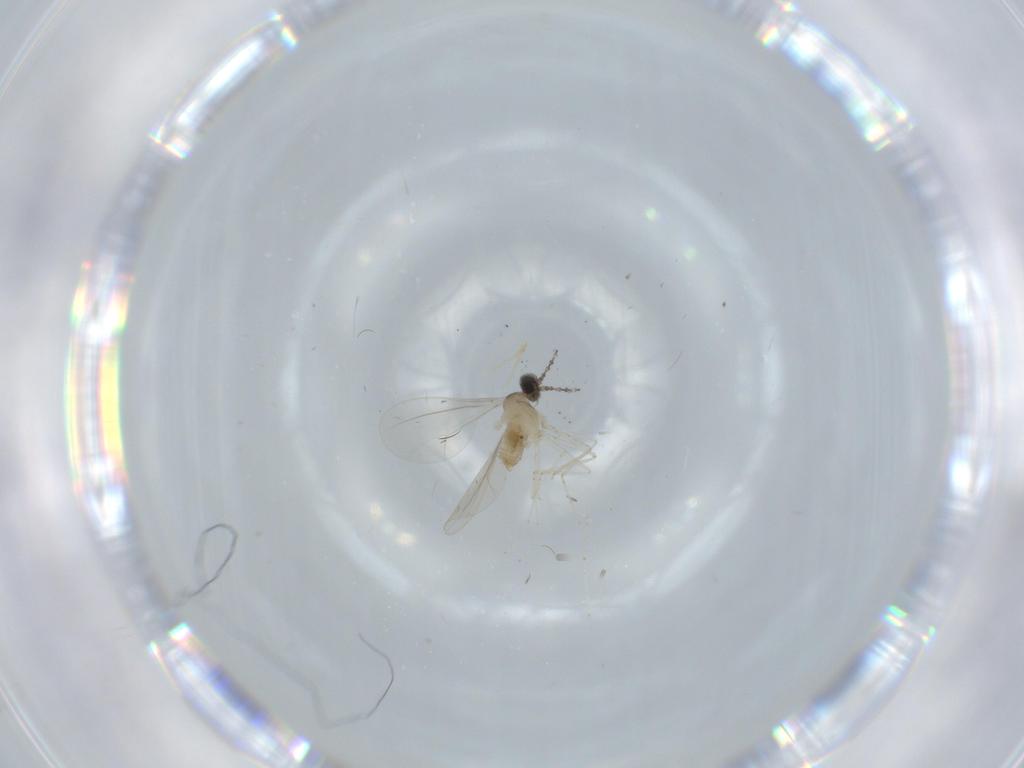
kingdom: Animalia
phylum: Arthropoda
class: Insecta
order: Diptera
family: Cecidomyiidae
